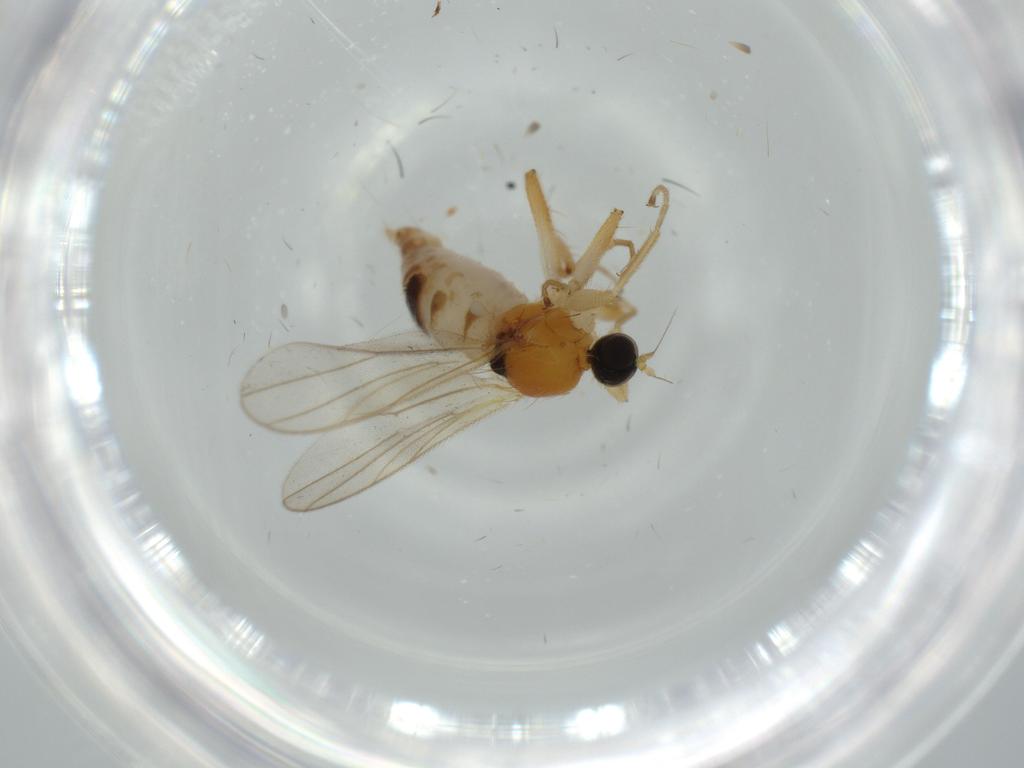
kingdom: Animalia
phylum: Arthropoda
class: Insecta
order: Diptera
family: Hybotidae
